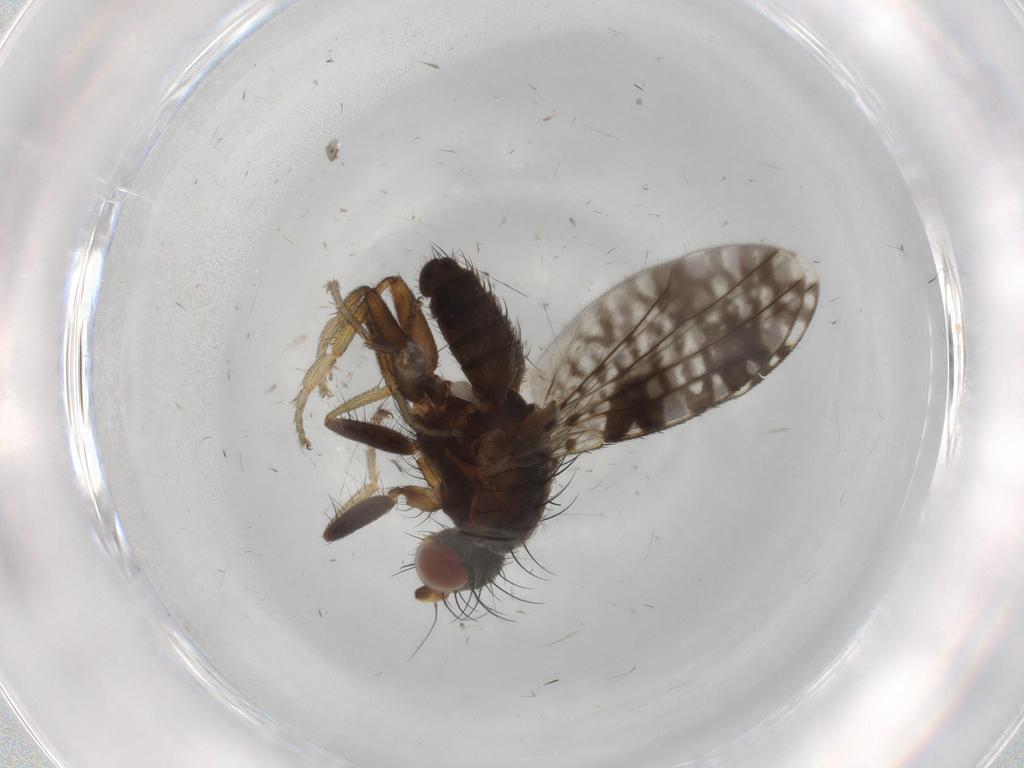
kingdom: Animalia
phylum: Arthropoda
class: Insecta
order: Diptera
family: Tephritidae
